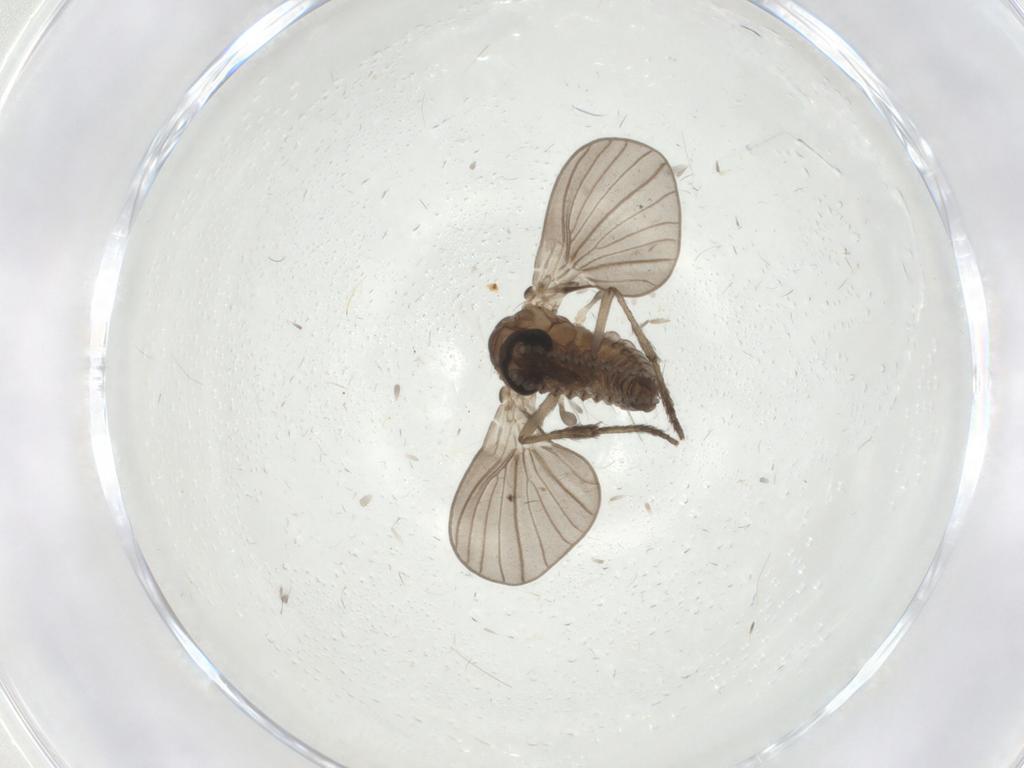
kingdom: Animalia
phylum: Arthropoda
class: Insecta
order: Diptera
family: Psychodidae
